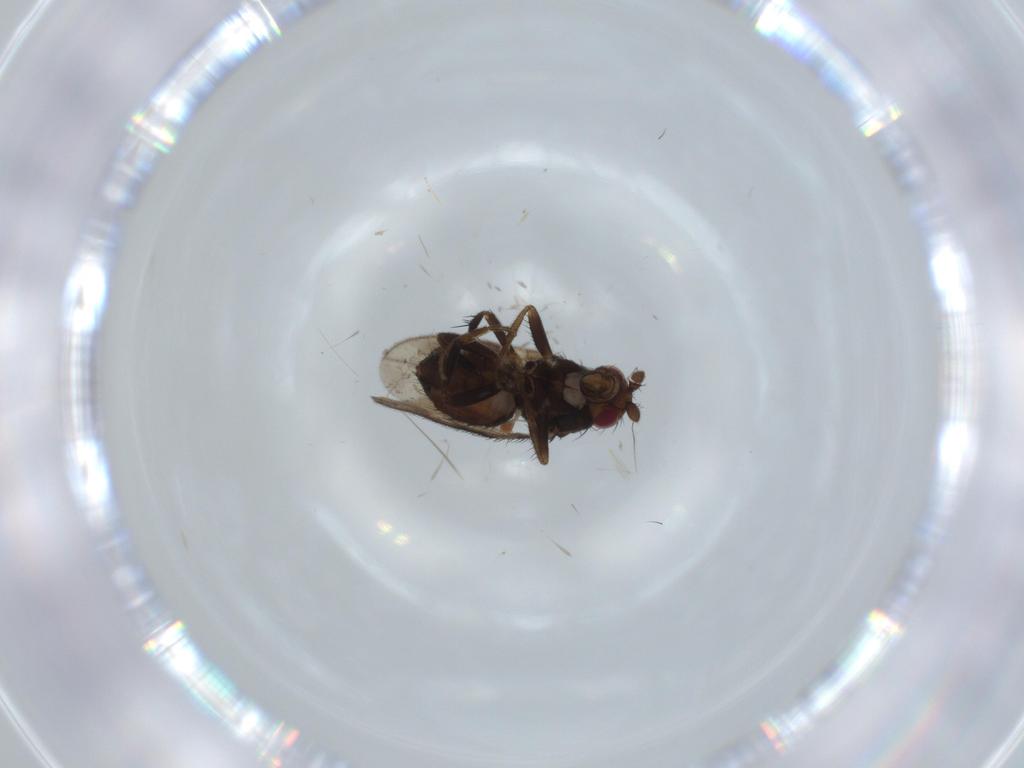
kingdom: Animalia
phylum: Arthropoda
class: Insecta
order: Diptera
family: Sphaeroceridae
